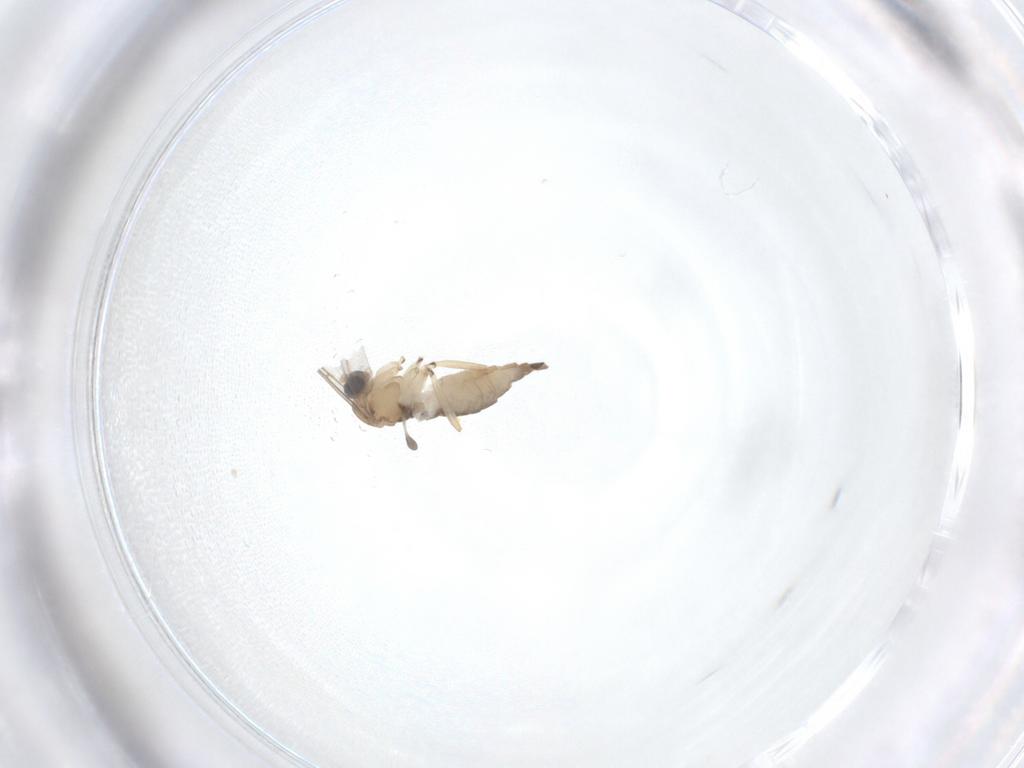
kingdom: Animalia
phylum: Arthropoda
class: Insecta
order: Diptera
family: Sciaridae
